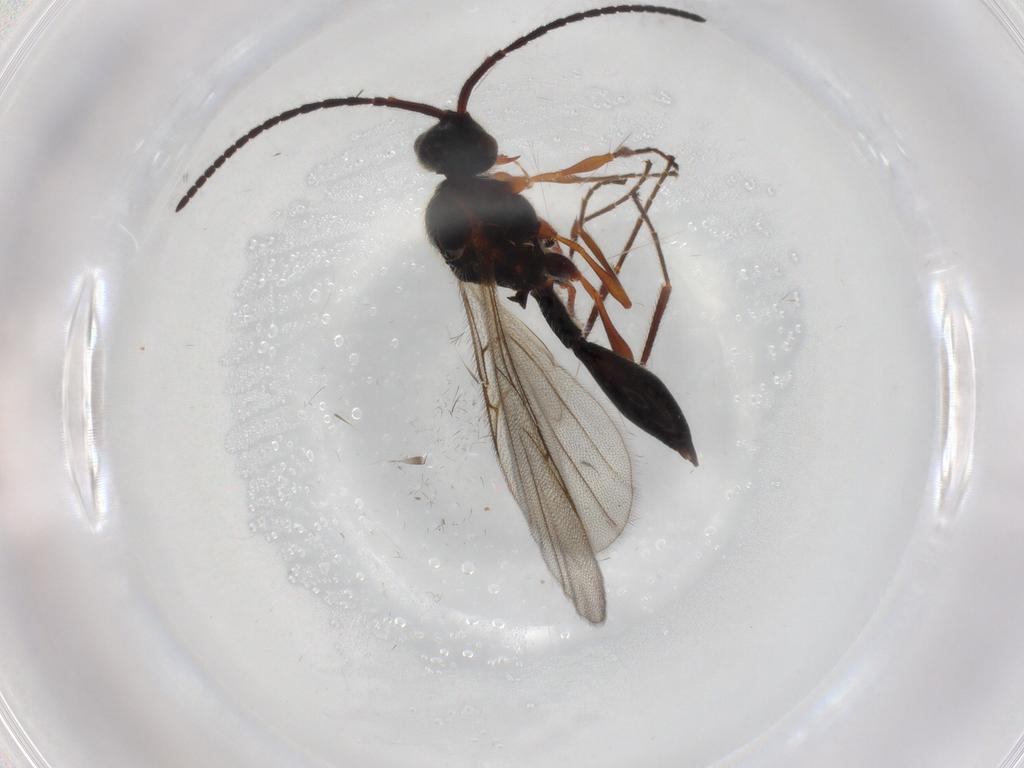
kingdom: Animalia
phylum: Arthropoda
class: Insecta
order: Hymenoptera
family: Diapriidae
